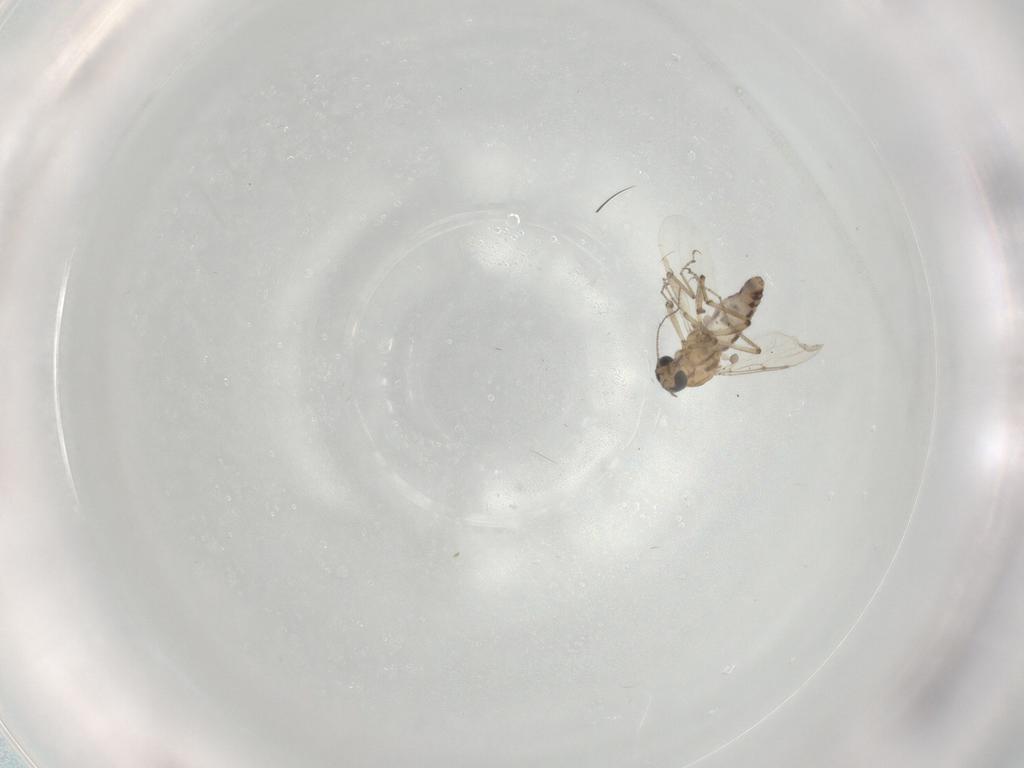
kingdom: Animalia
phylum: Arthropoda
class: Insecta
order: Diptera
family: Ceratopogonidae
